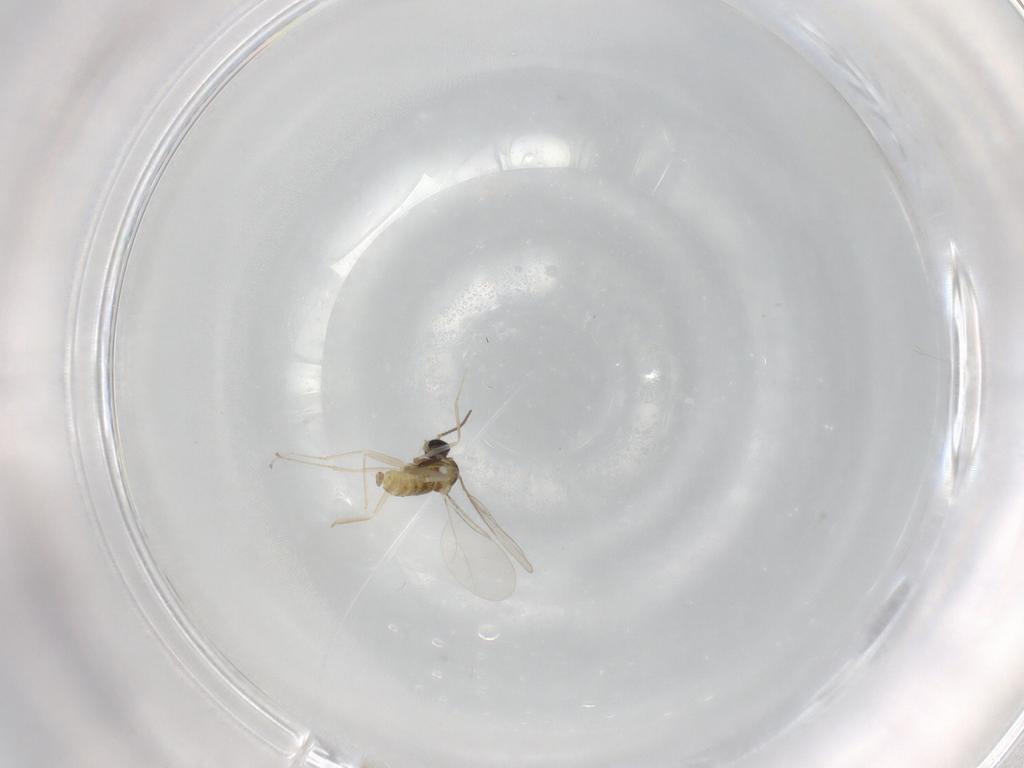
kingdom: Animalia
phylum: Arthropoda
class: Insecta
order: Diptera
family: Cecidomyiidae
